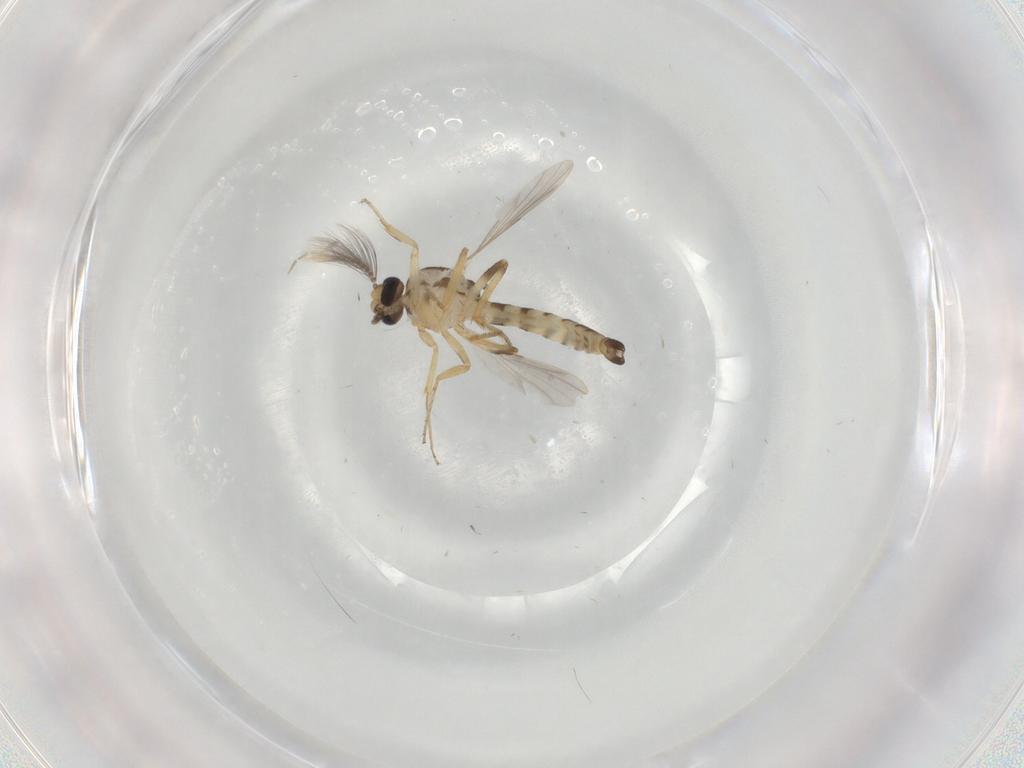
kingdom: Animalia
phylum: Arthropoda
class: Insecta
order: Diptera
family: Ceratopogonidae
